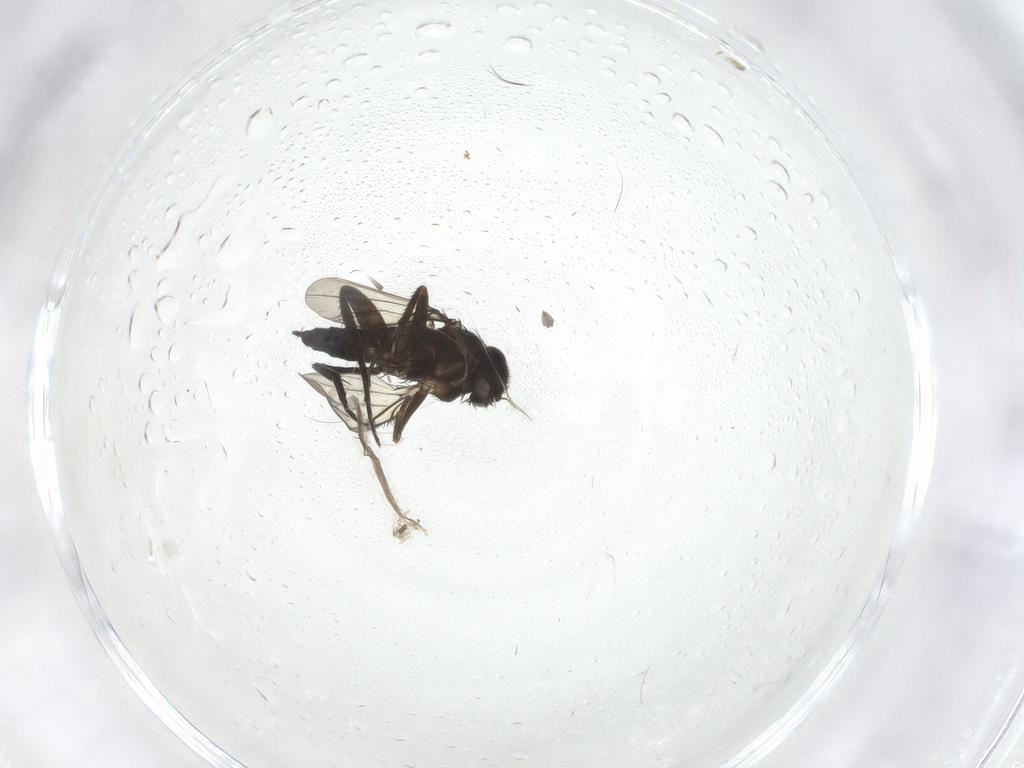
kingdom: Animalia
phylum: Arthropoda
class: Insecta
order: Diptera
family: Phoridae
